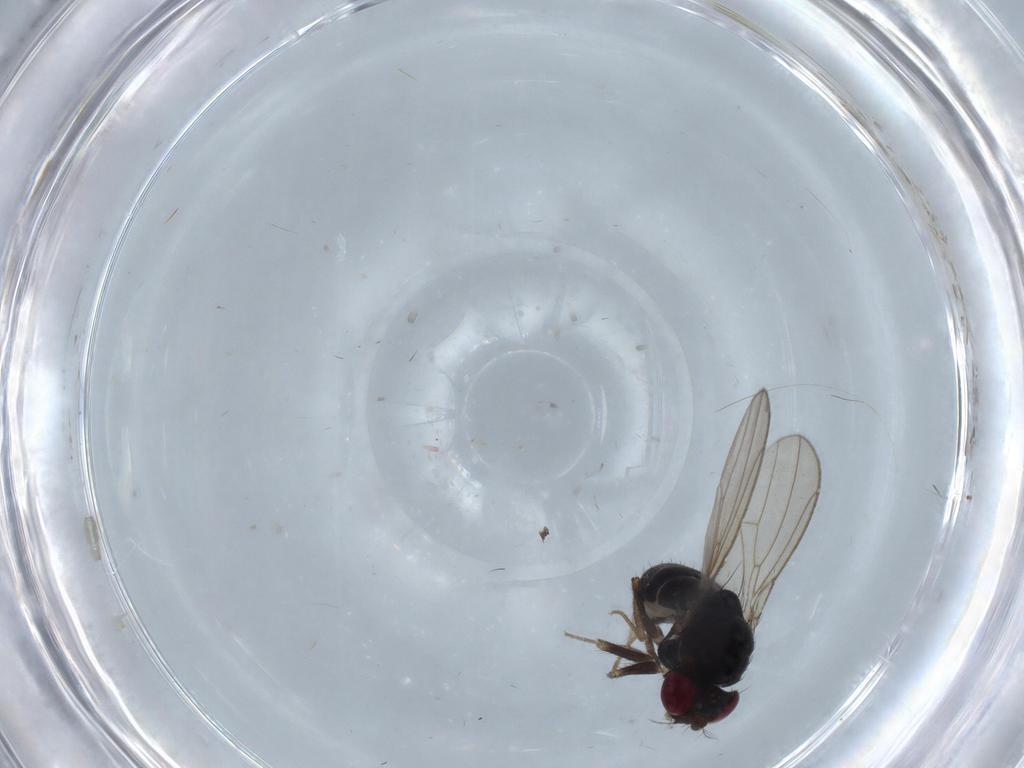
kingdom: Animalia
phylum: Arthropoda
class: Insecta
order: Diptera
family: Drosophilidae
